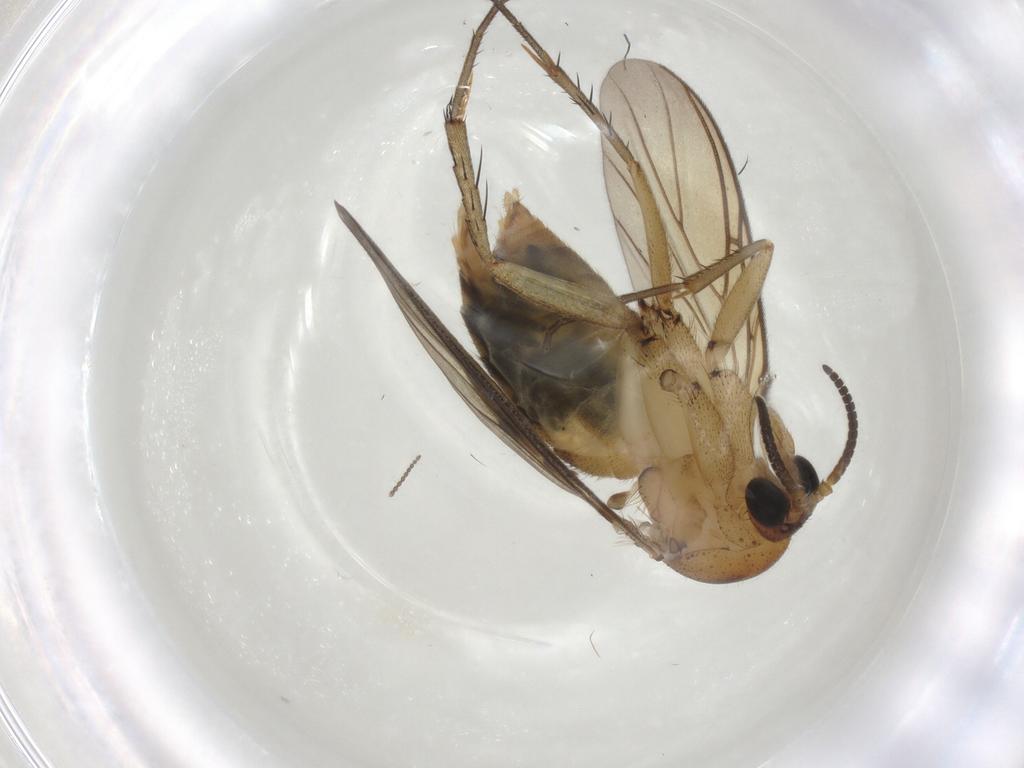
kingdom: Animalia
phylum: Arthropoda
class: Insecta
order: Diptera
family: Mycetophilidae
